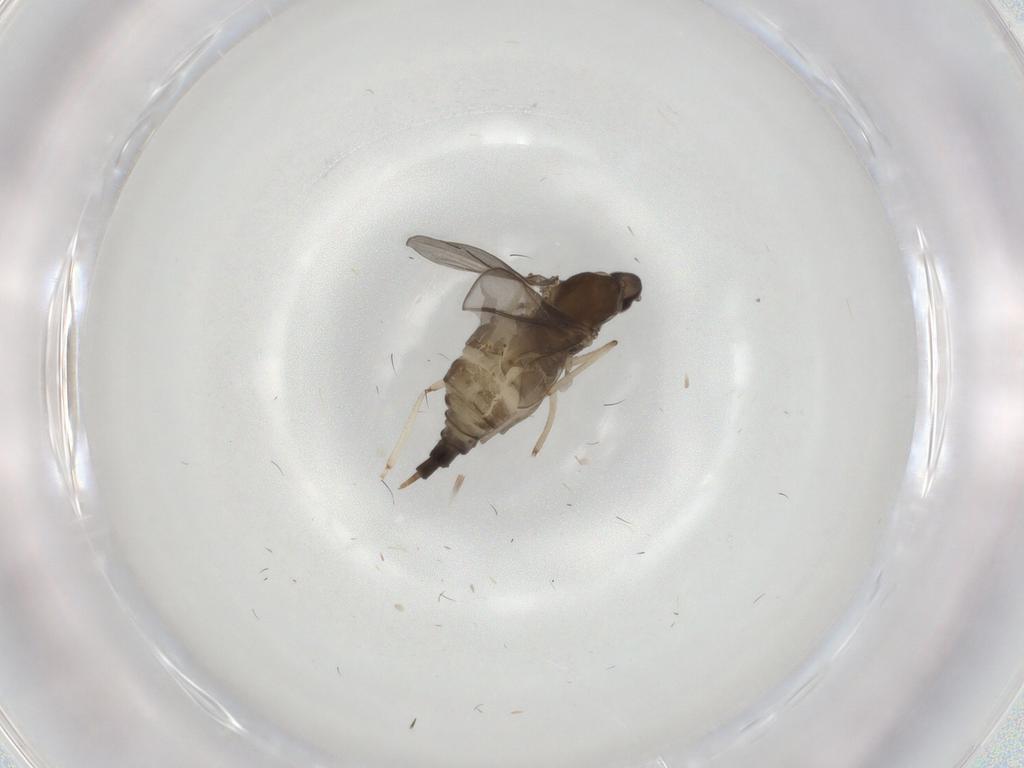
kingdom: Animalia
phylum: Arthropoda
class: Insecta
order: Diptera
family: Cecidomyiidae
